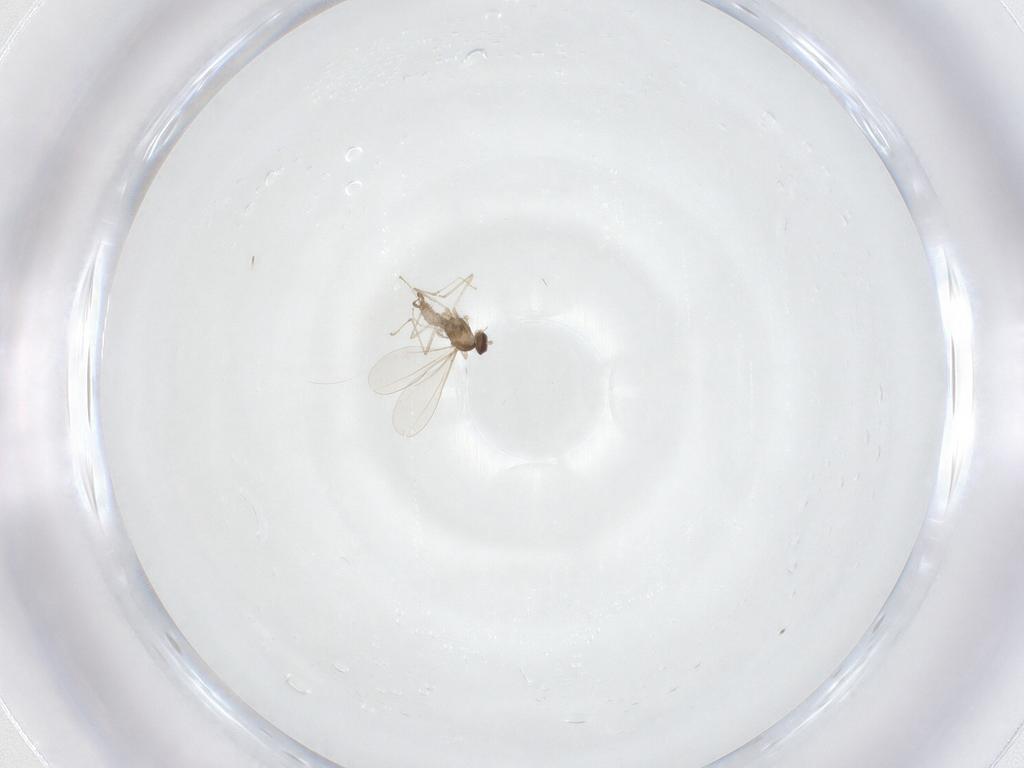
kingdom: Animalia
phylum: Arthropoda
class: Insecta
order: Diptera
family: Cecidomyiidae
